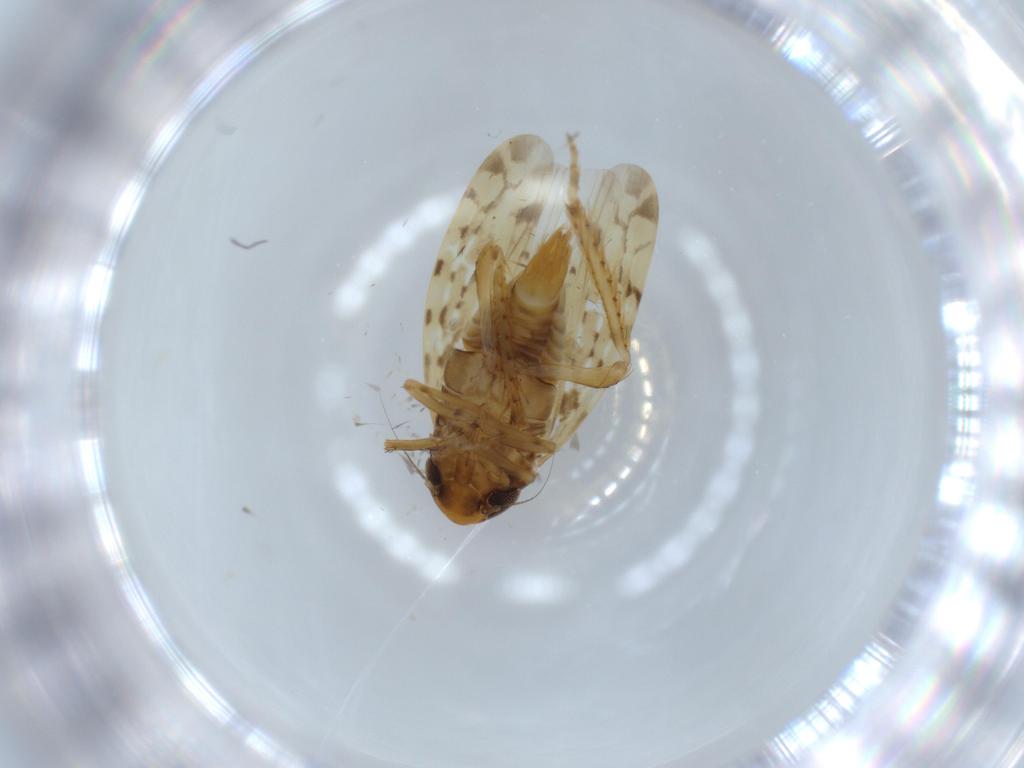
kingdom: Animalia
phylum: Arthropoda
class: Insecta
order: Hemiptera
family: Cicadellidae
